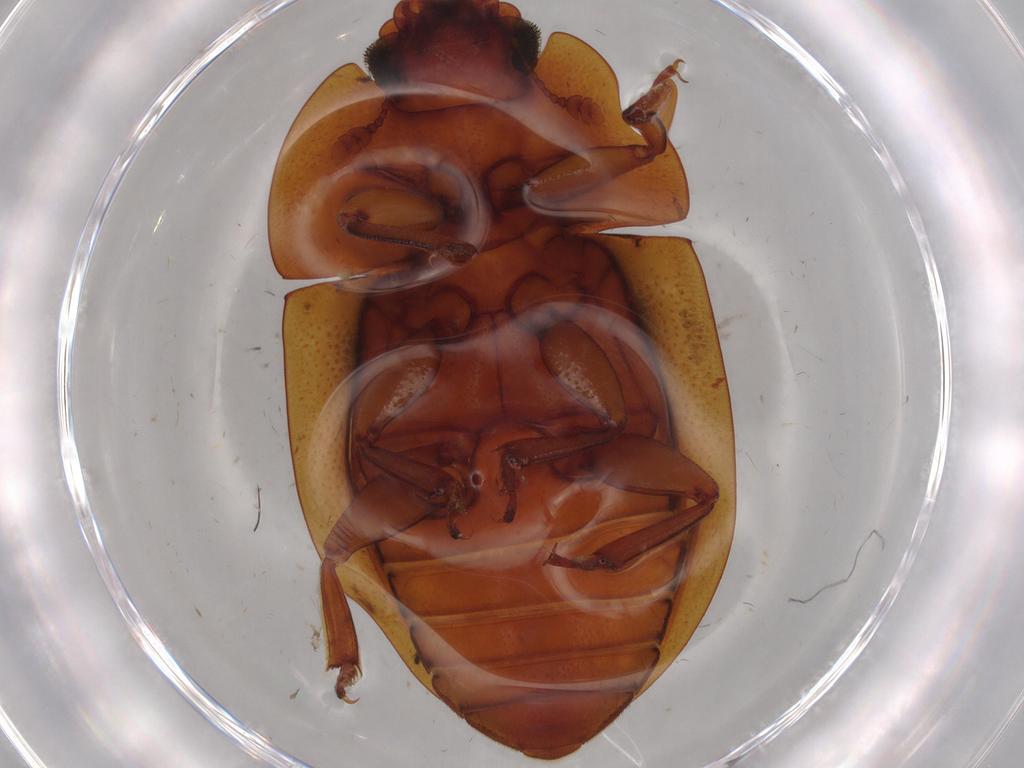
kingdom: Animalia
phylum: Arthropoda
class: Insecta
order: Coleoptera
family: Nitidulidae
